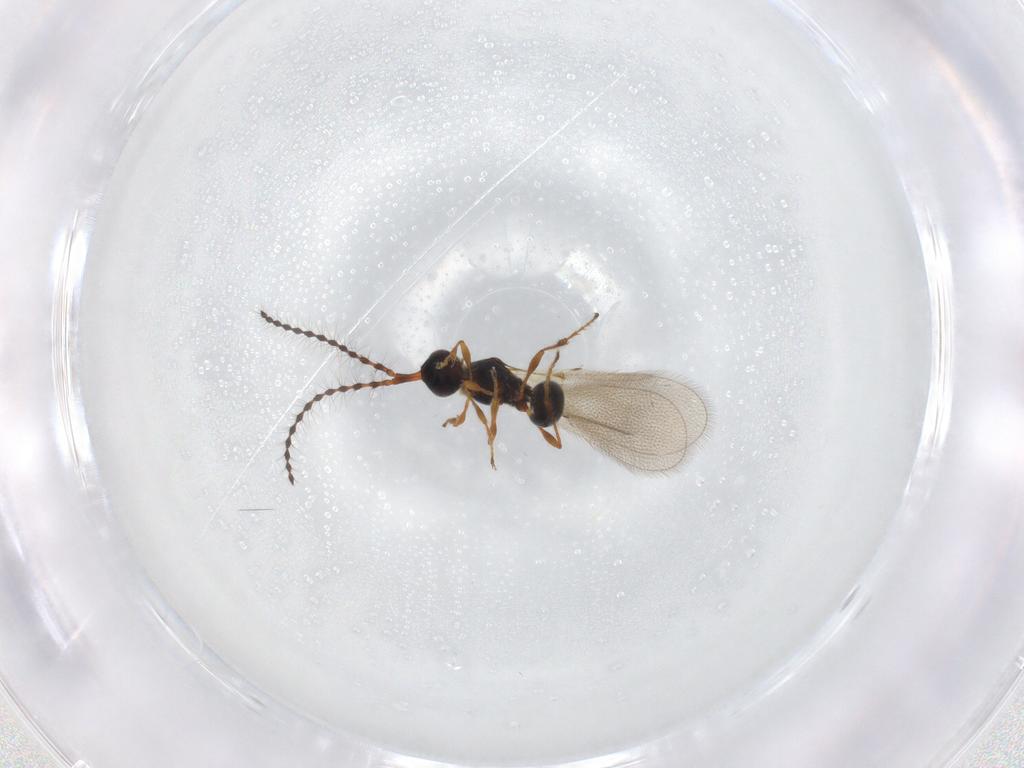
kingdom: Animalia
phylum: Arthropoda
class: Insecta
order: Hymenoptera
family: Diapriidae
